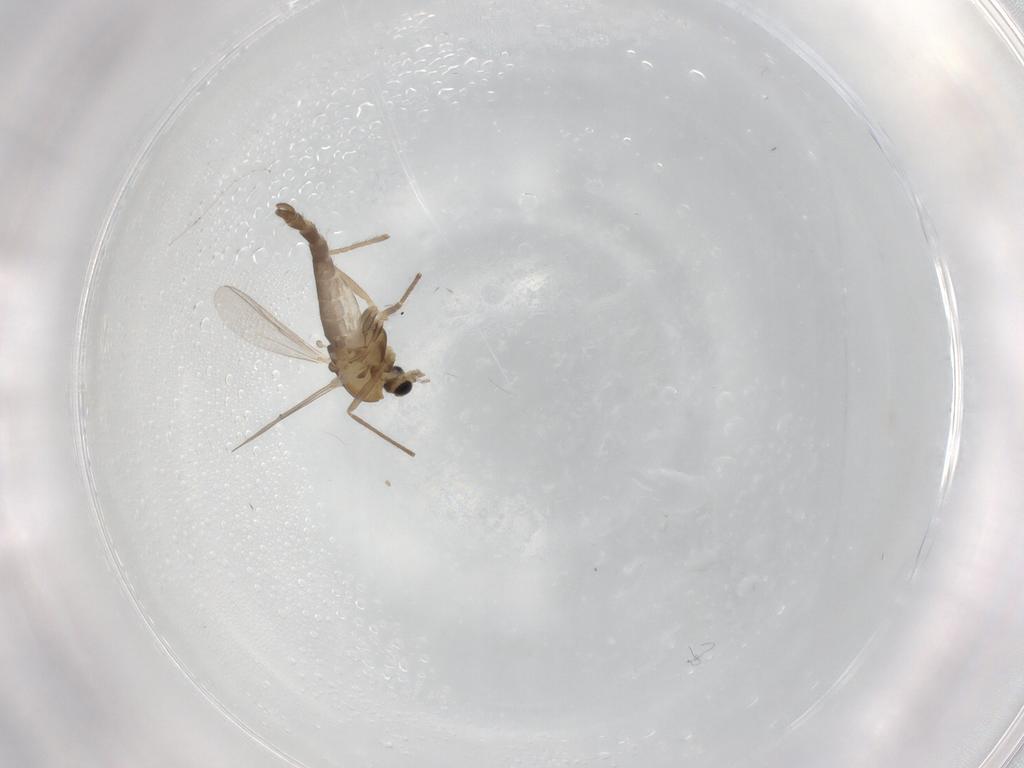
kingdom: Animalia
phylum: Arthropoda
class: Insecta
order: Diptera
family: Chironomidae
